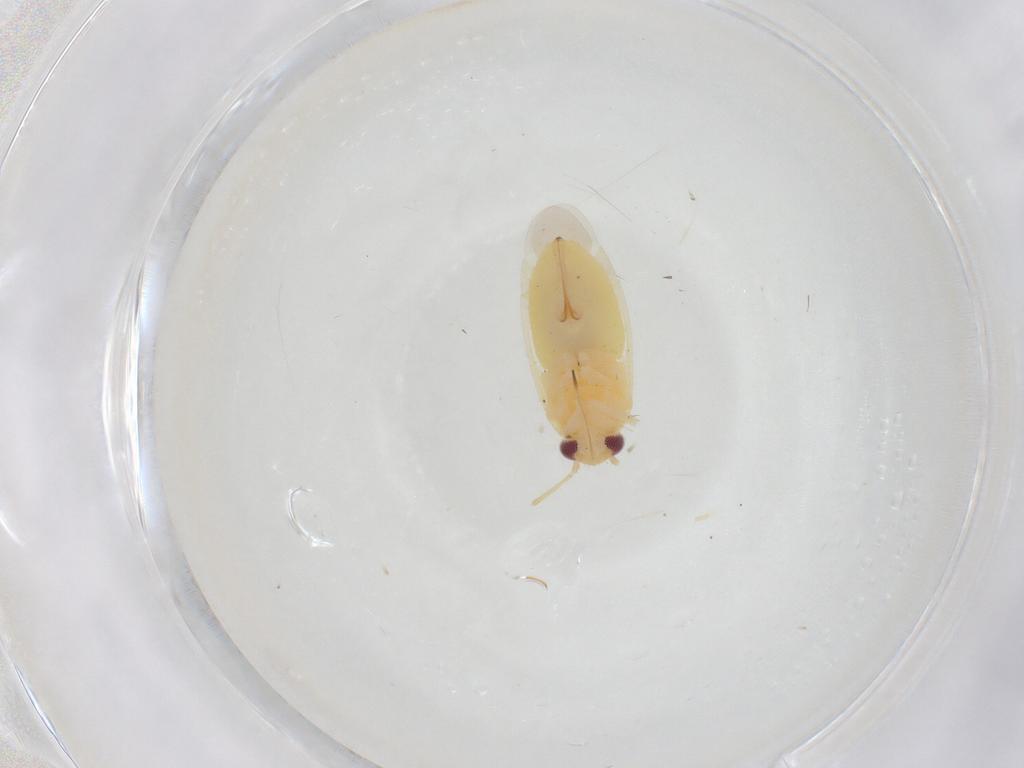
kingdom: Animalia
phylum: Arthropoda
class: Insecta
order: Hemiptera
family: Miridae
